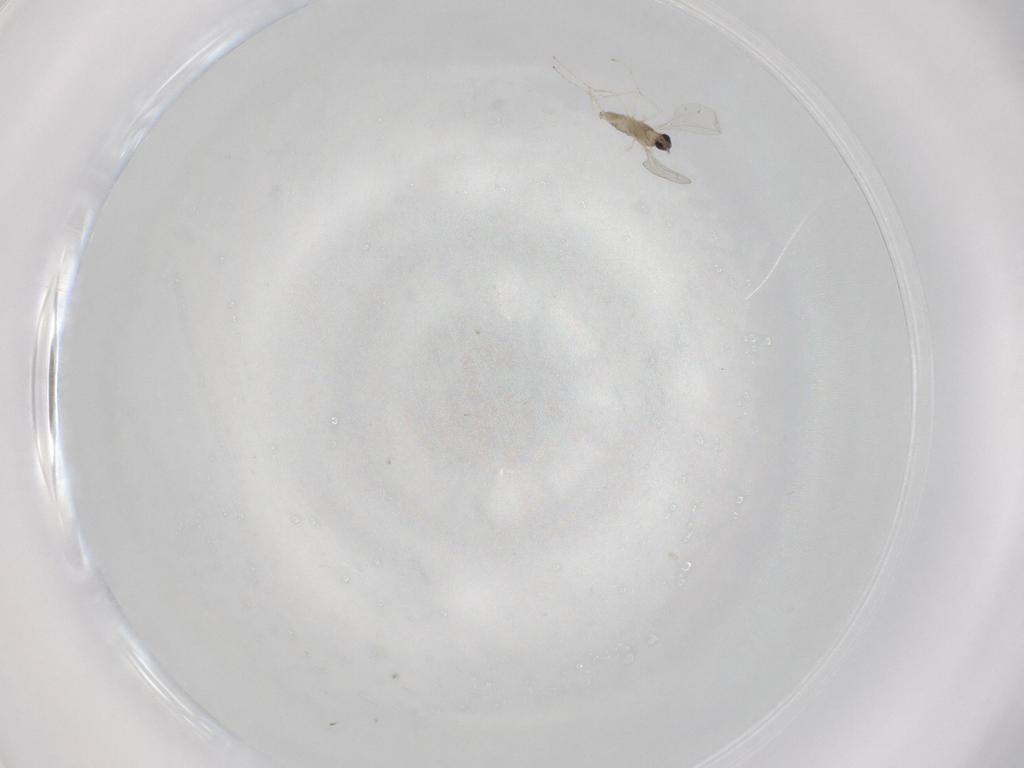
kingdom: Animalia
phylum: Arthropoda
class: Insecta
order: Diptera
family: Cecidomyiidae
